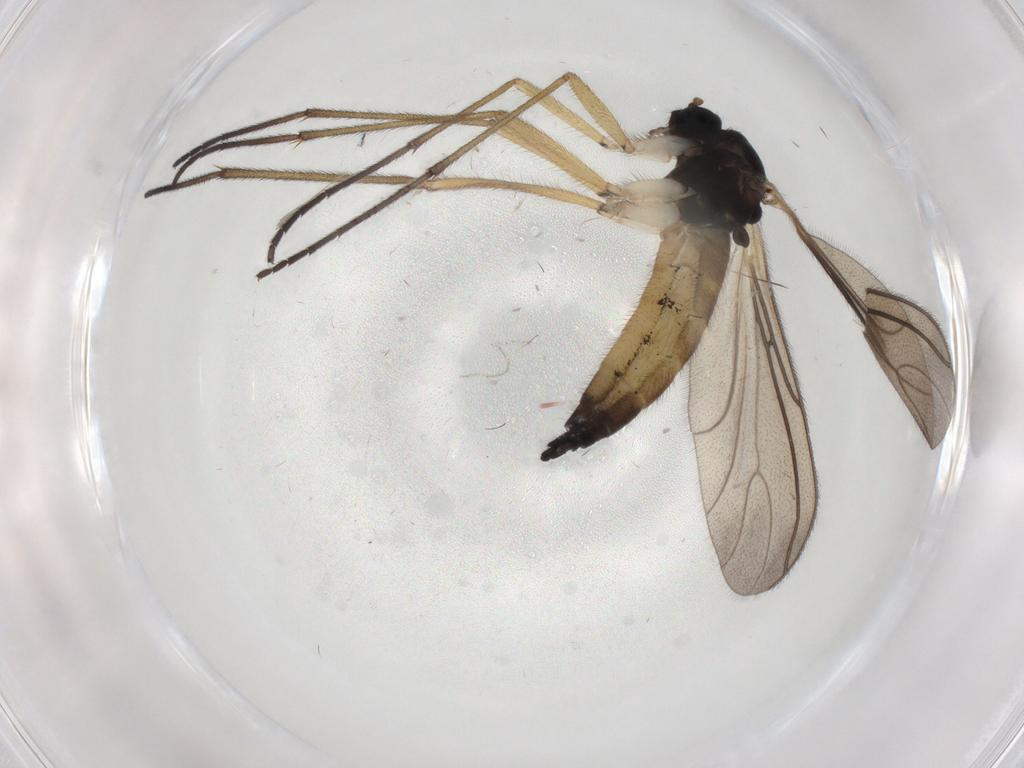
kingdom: Animalia
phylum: Arthropoda
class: Insecta
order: Diptera
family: Sciaridae
